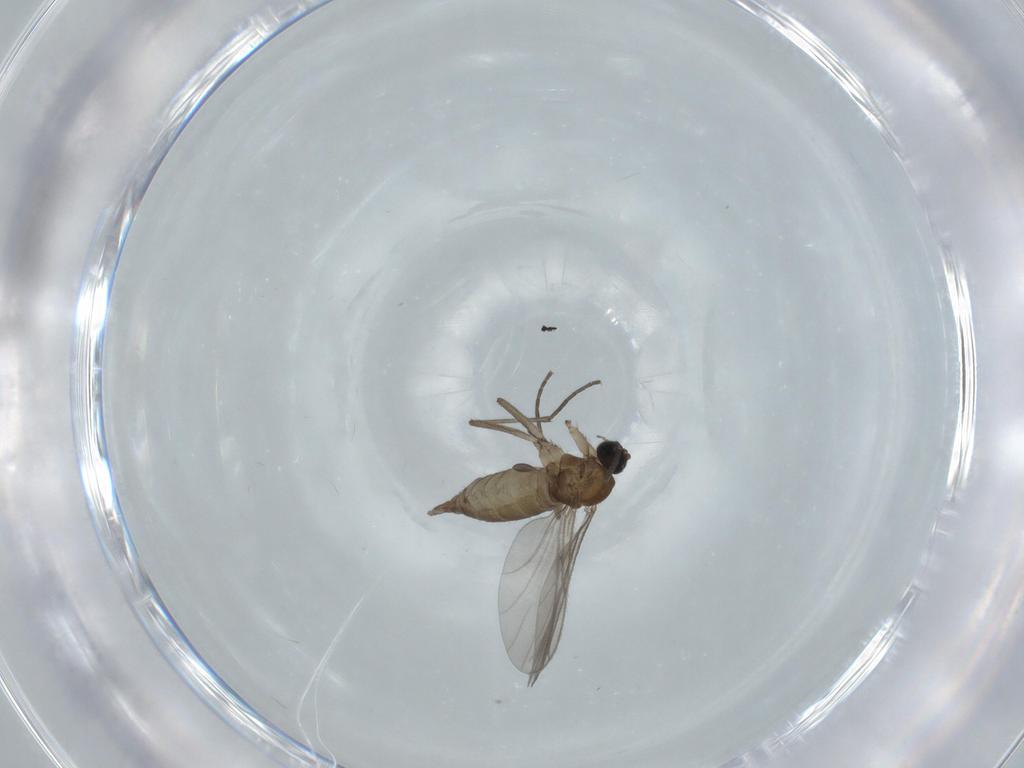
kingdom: Animalia
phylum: Arthropoda
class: Insecta
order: Diptera
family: Sciaridae
